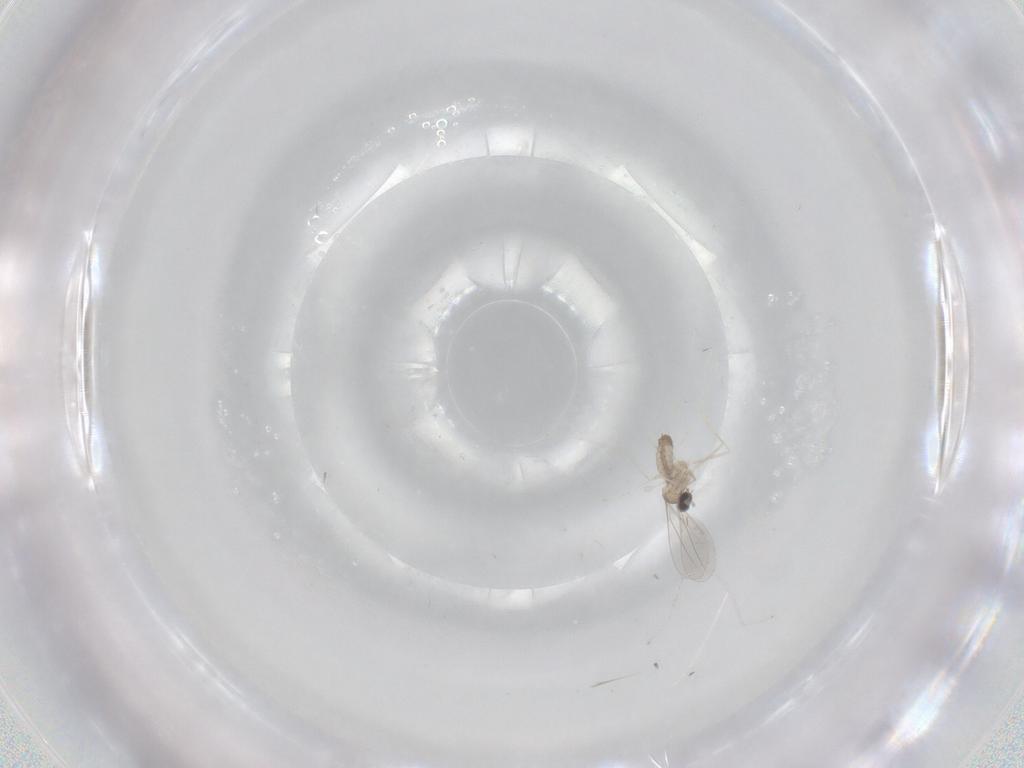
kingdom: Animalia
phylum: Arthropoda
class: Insecta
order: Diptera
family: Cecidomyiidae
